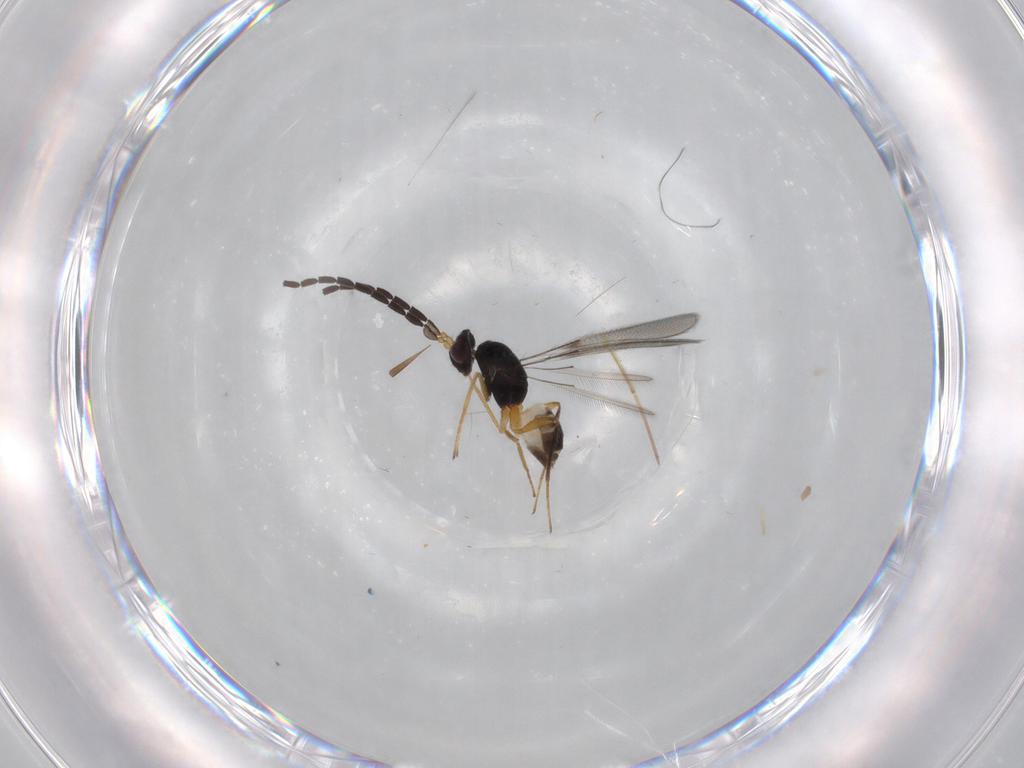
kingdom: Animalia
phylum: Arthropoda
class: Insecta
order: Hymenoptera
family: Mymaridae
